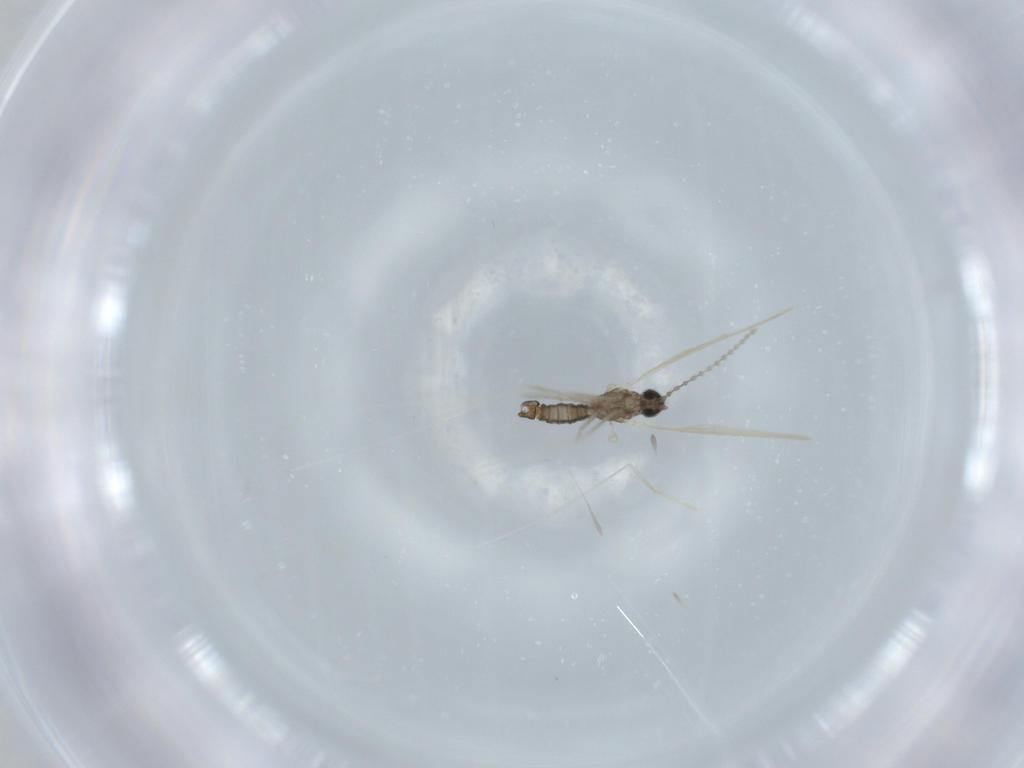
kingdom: Animalia
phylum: Arthropoda
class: Insecta
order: Diptera
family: Cecidomyiidae
